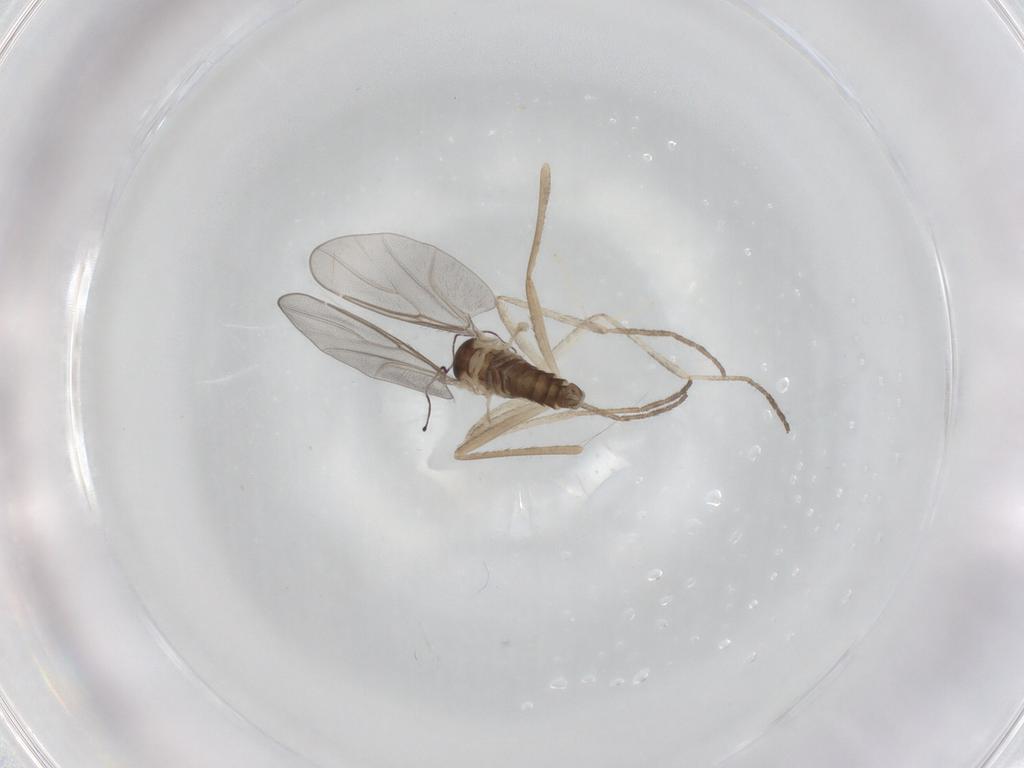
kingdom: Animalia
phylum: Arthropoda
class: Insecta
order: Diptera
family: Cecidomyiidae
